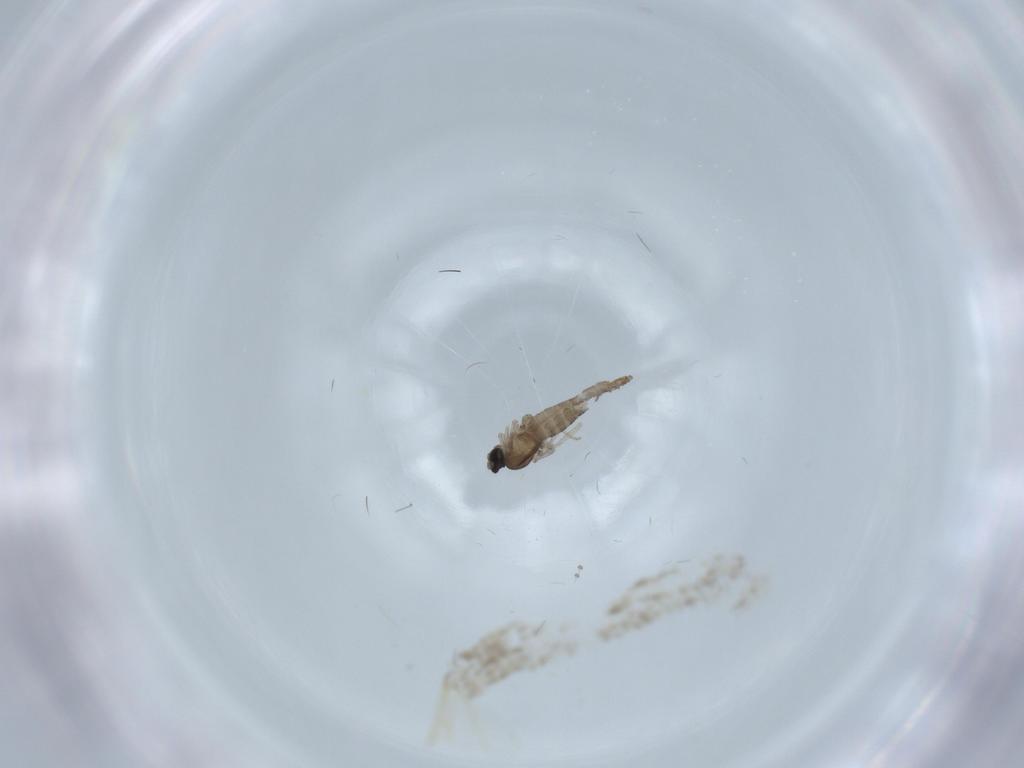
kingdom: Animalia
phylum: Arthropoda
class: Insecta
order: Diptera
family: Cecidomyiidae
